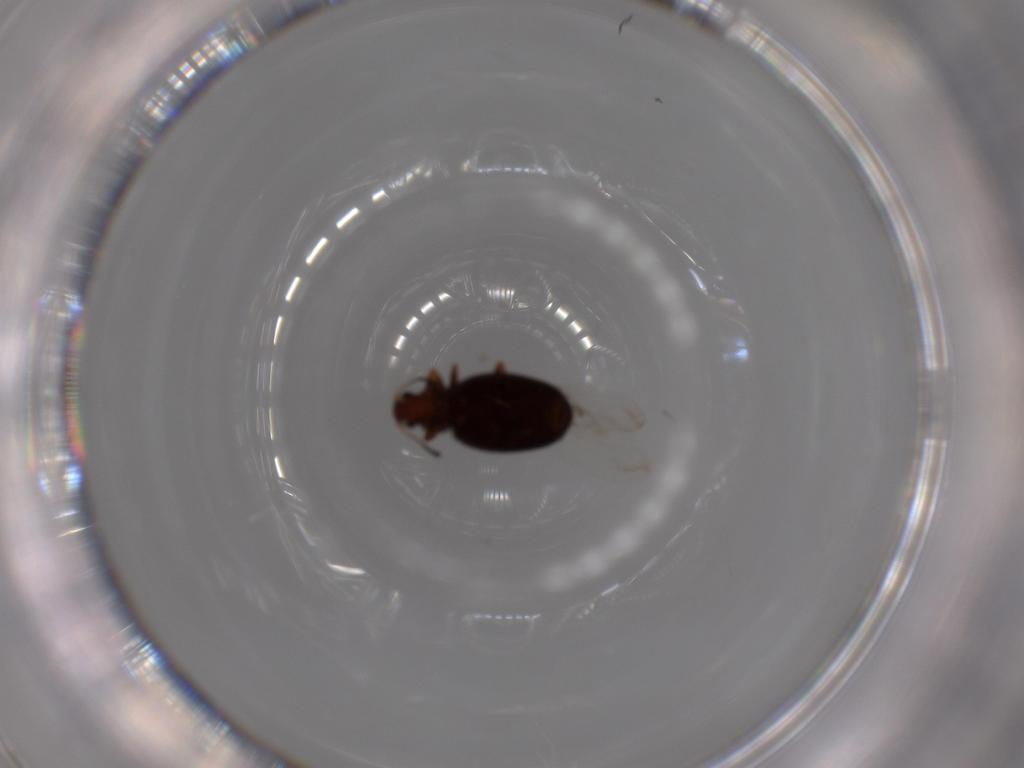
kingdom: Animalia
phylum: Arthropoda
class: Insecta
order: Coleoptera
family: Latridiidae
